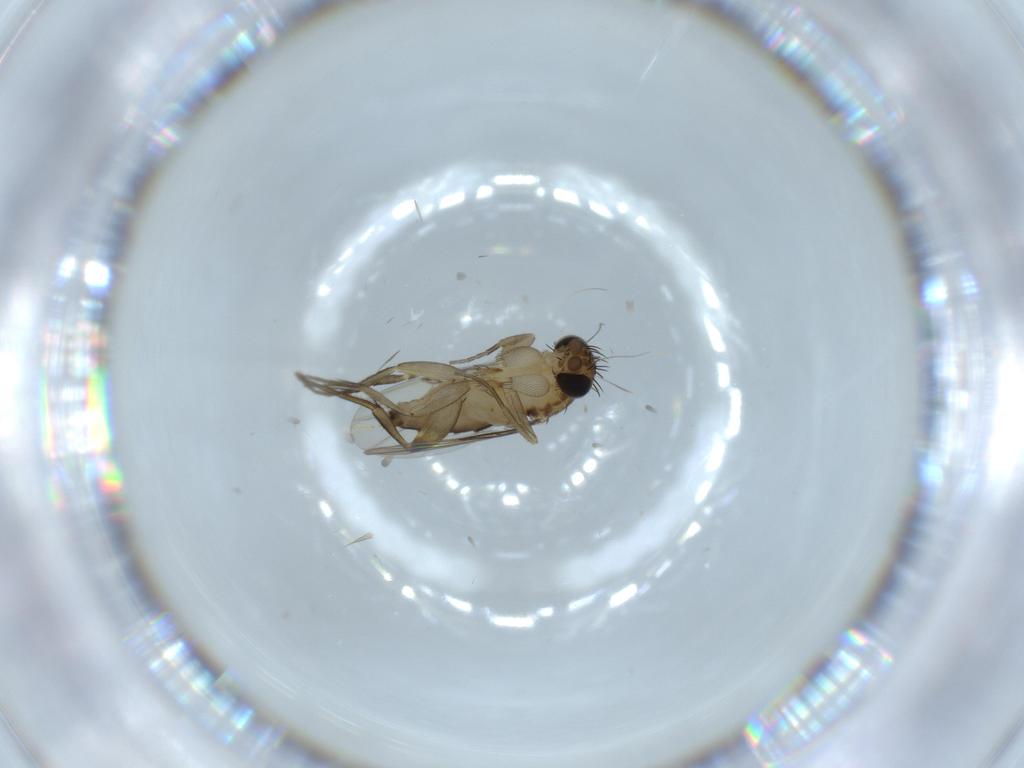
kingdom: Animalia
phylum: Arthropoda
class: Insecta
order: Diptera
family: Phoridae
